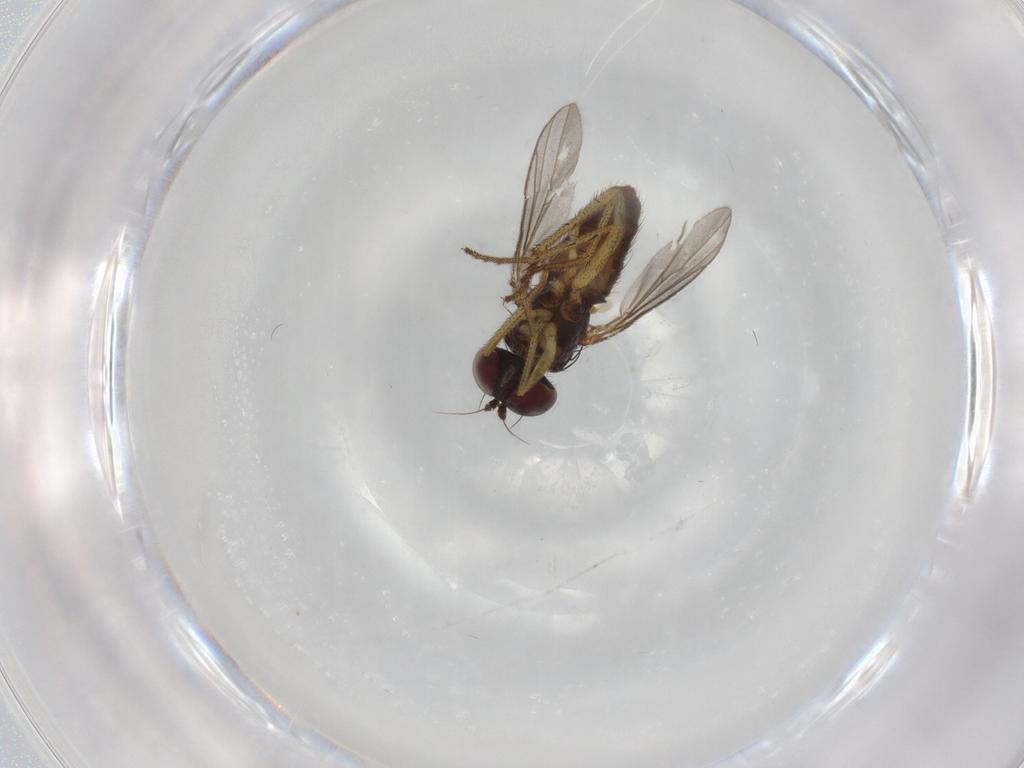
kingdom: Animalia
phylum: Arthropoda
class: Insecta
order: Diptera
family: Dolichopodidae
